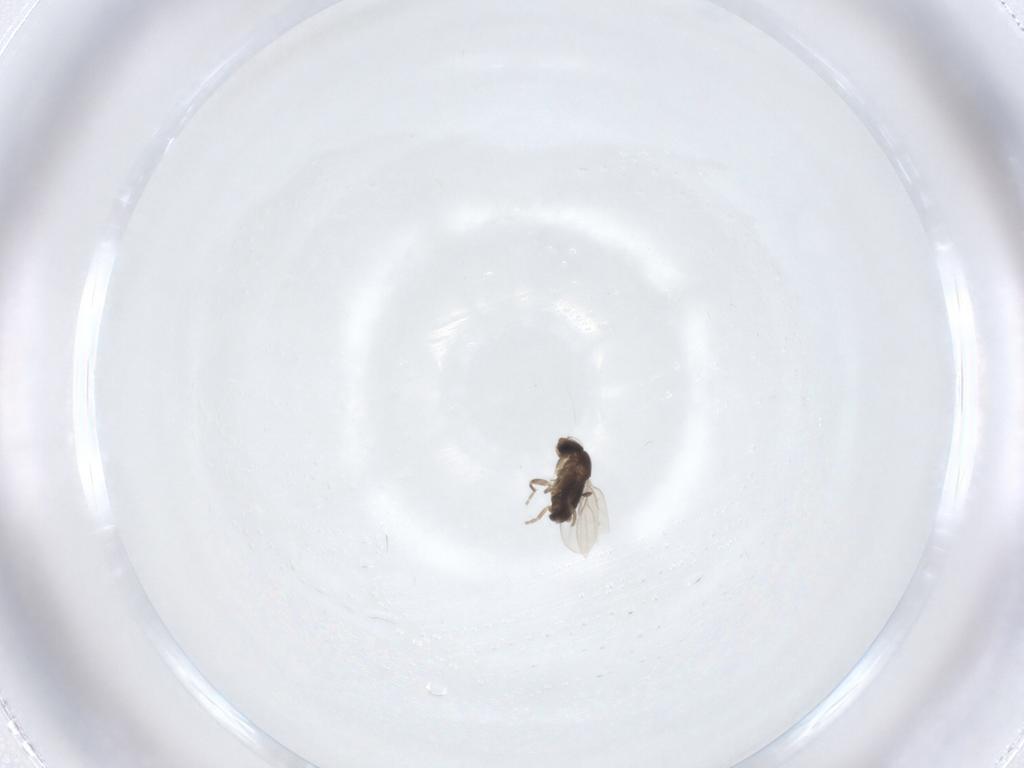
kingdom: Animalia
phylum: Arthropoda
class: Insecta
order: Diptera
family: Phoridae
